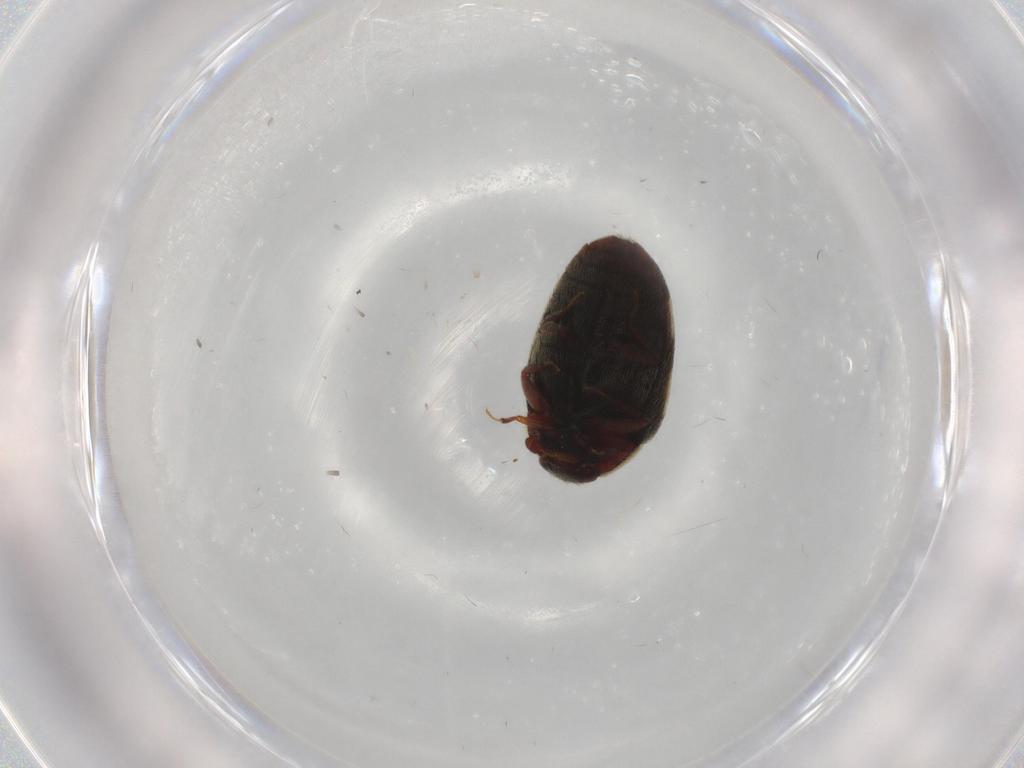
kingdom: Animalia
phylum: Arthropoda
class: Insecta
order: Coleoptera
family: Dermestidae
